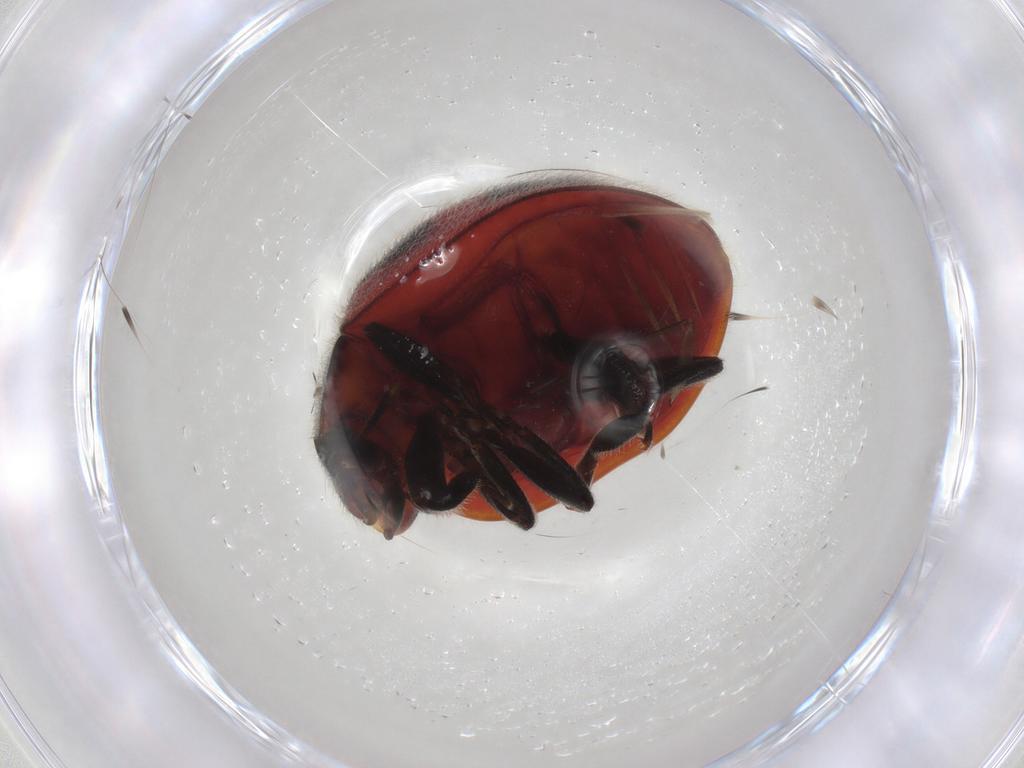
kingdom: Animalia
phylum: Arthropoda
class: Insecta
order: Coleoptera
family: Coccinellidae
